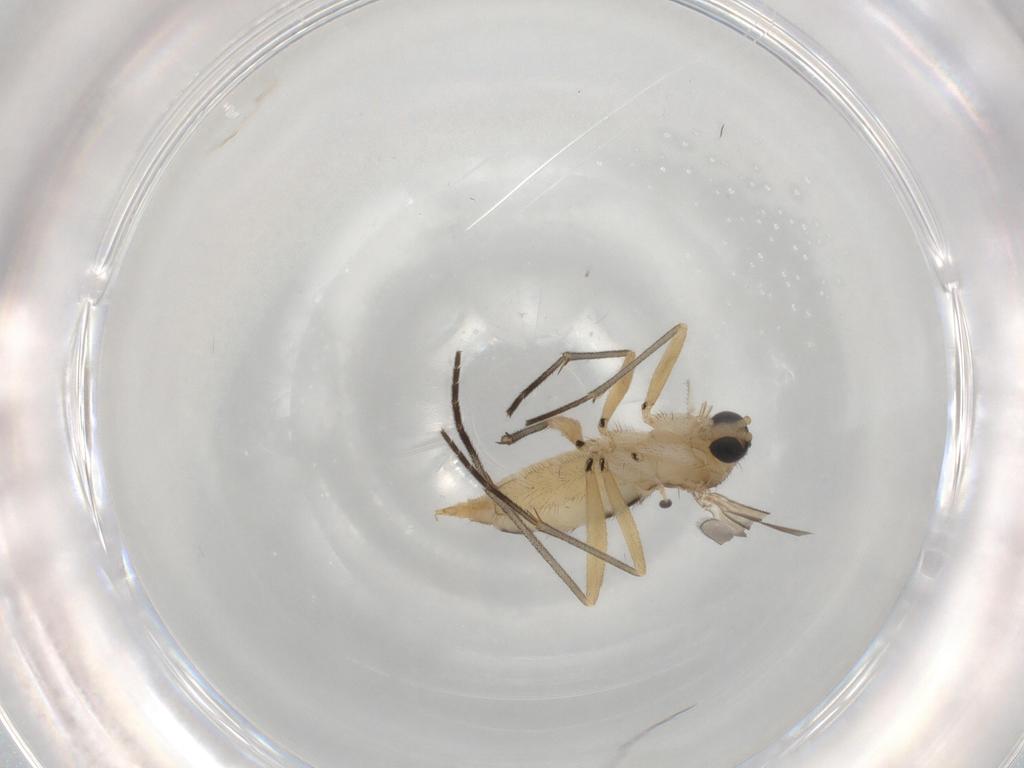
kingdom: Animalia
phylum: Arthropoda
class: Insecta
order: Diptera
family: Sciaridae
